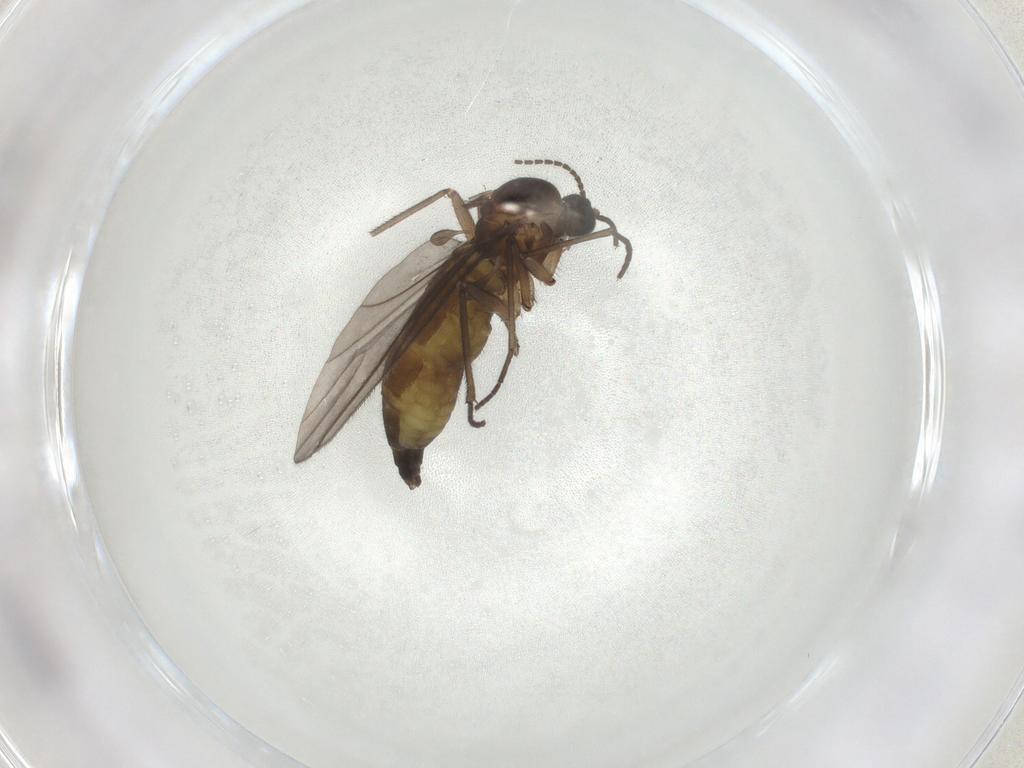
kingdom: Animalia
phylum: Arthropoda
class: Insecta
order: Diptera
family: Sciaridae
